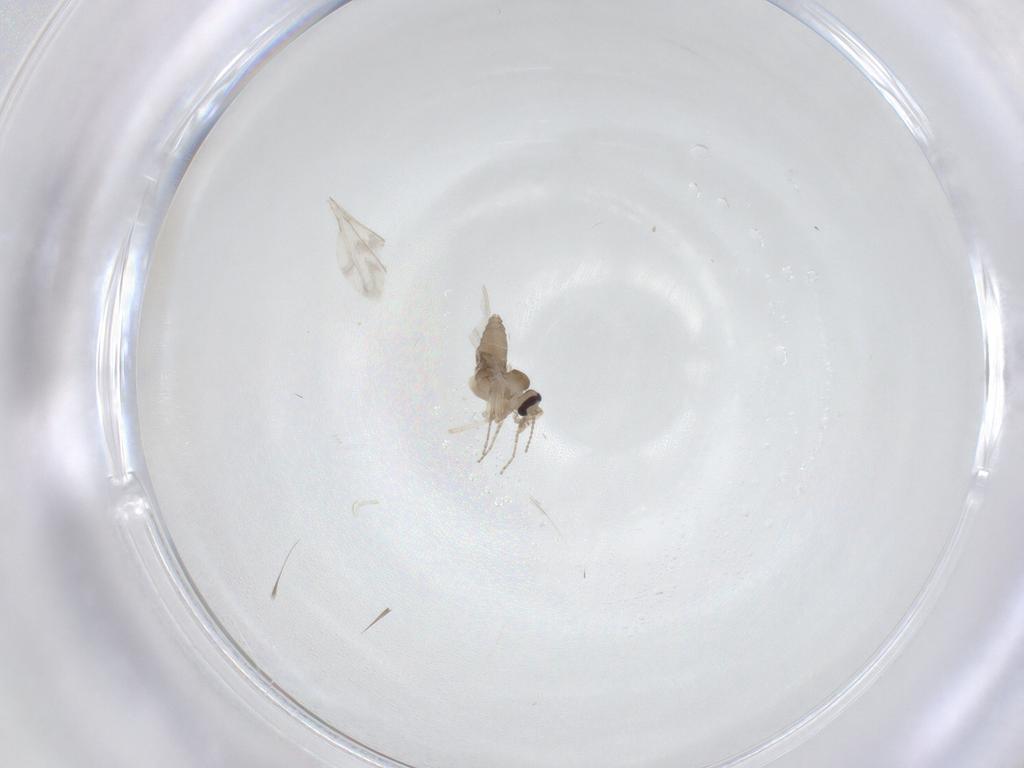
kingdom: Animalia
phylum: Arthropoda
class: Insecta
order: Diptera
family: Ceratopogonidae
